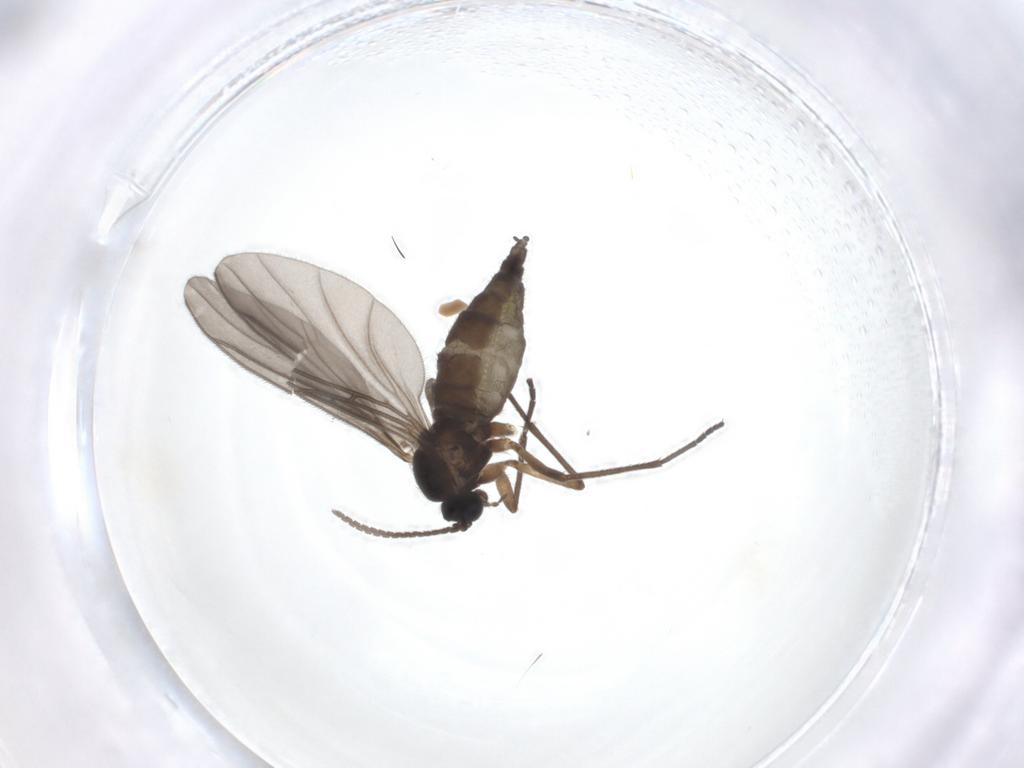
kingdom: Animalia
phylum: Arthropoda
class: Insecta
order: Diptera
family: Sciaridae
